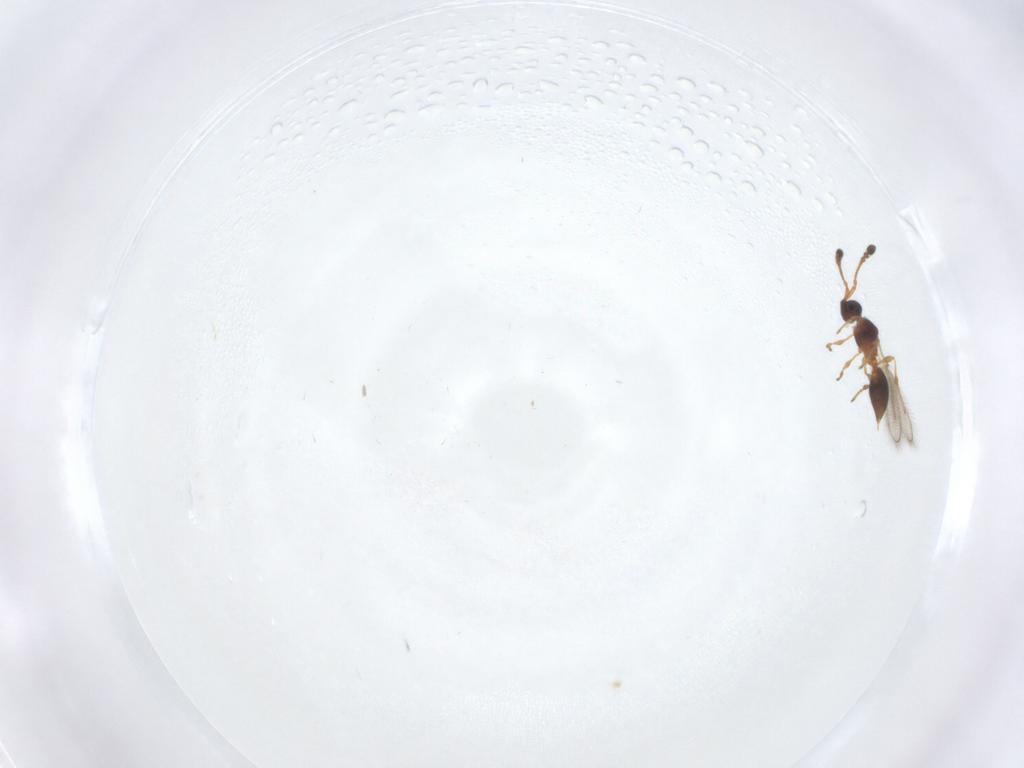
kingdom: Animalia
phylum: Arthropoda
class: Insecta
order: Hymenoptera
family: Diapriidae
